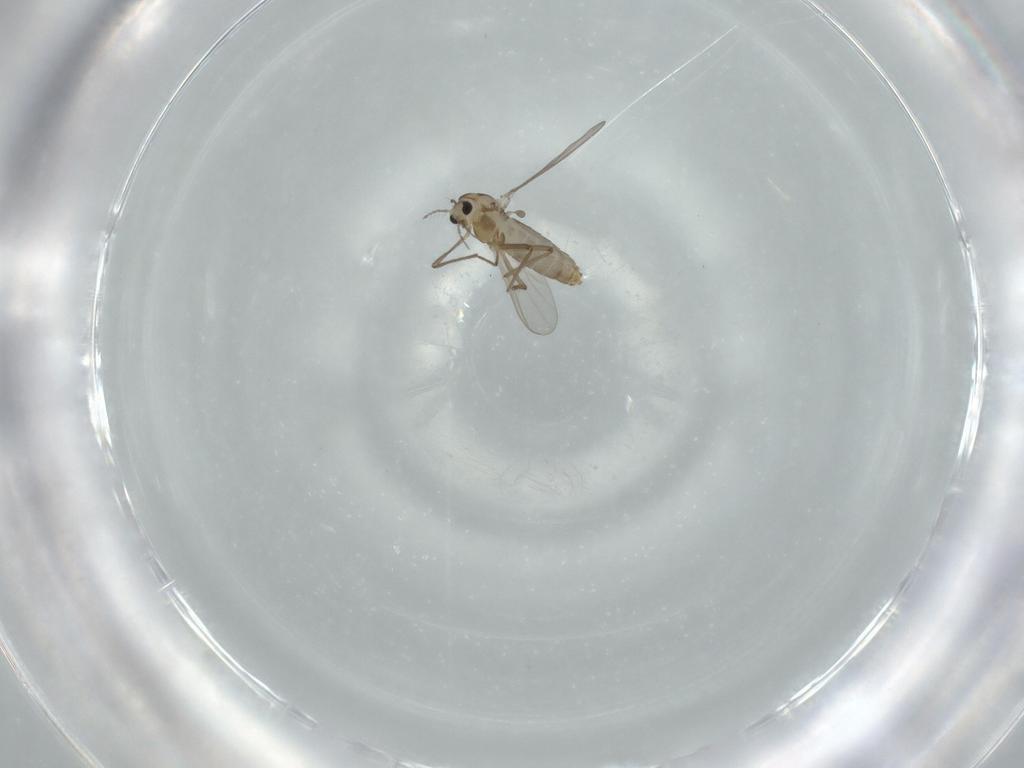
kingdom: Animalia
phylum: Arthropoda
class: Insecta
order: Diptera
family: Chironomidae
